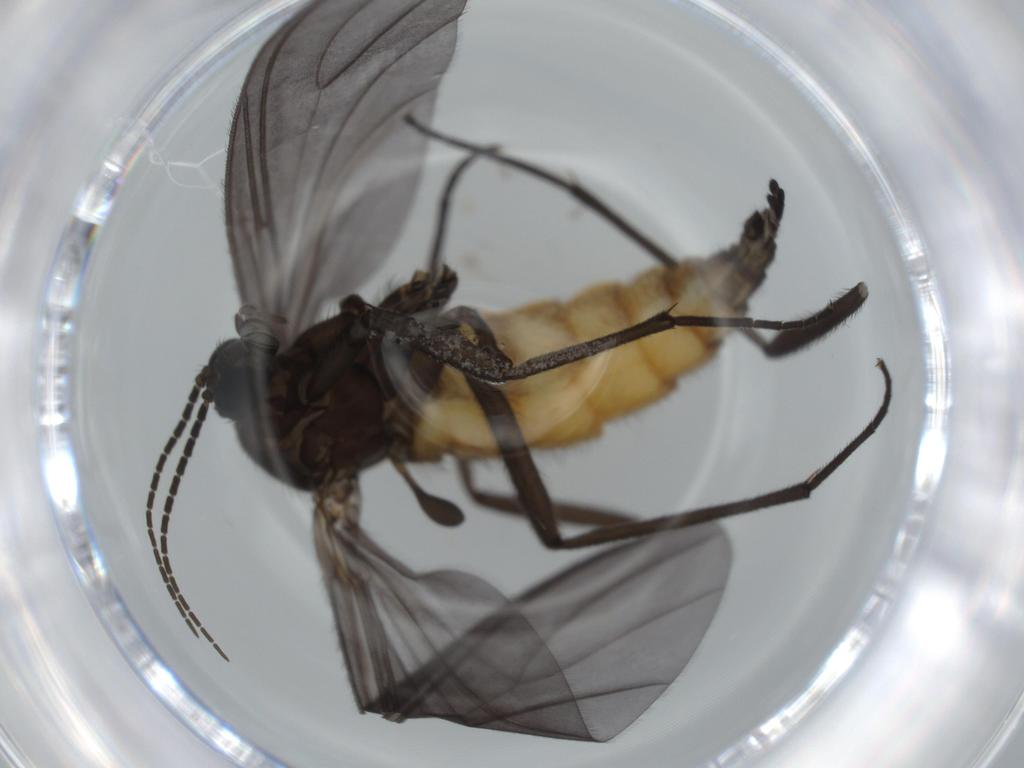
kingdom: Animalia
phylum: Arthropoda
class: Insecta
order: Diptera
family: Sciaridae
